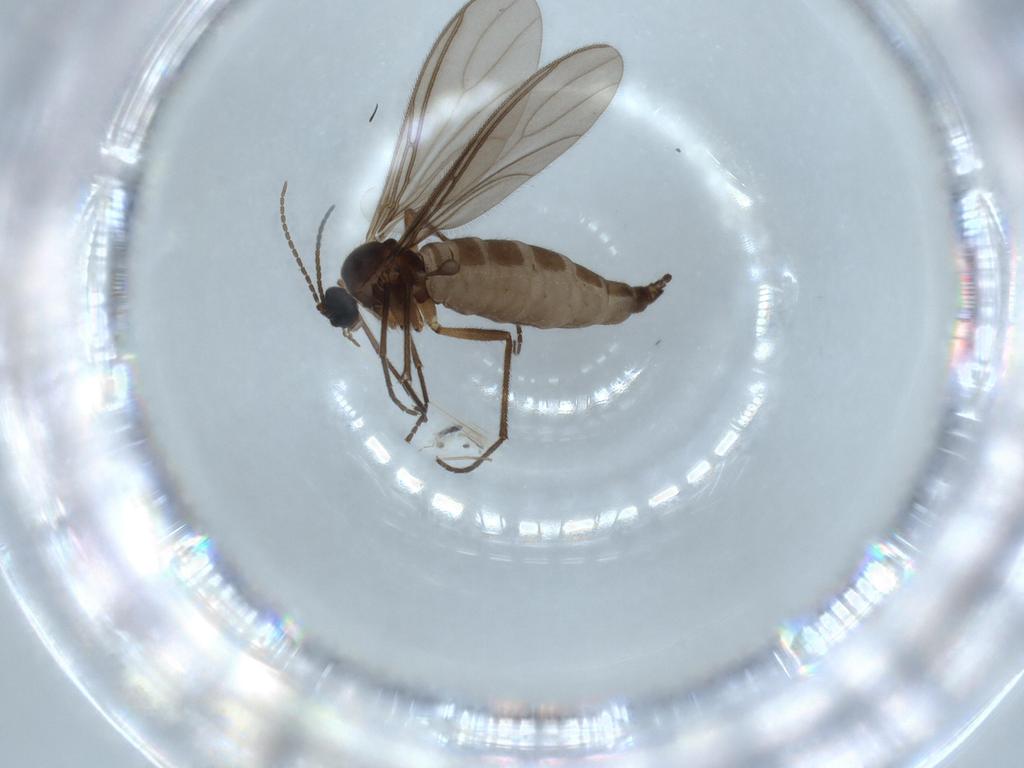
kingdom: Animalia
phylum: Arthropoda
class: Insecta
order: Diptera
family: Sciaridae
